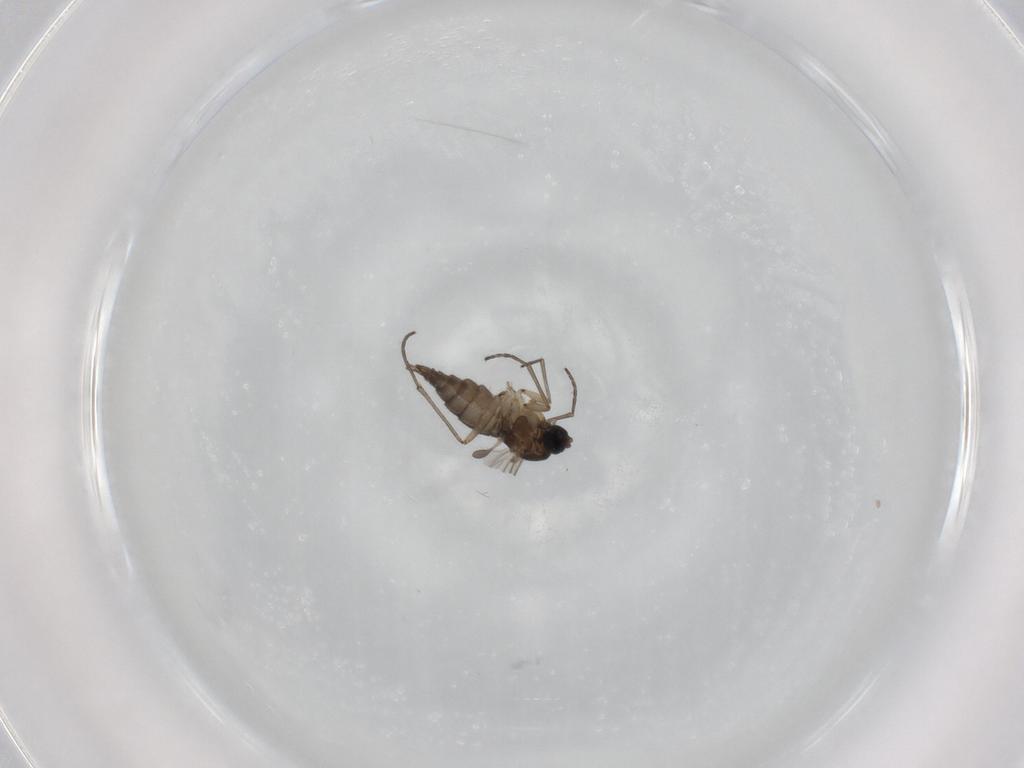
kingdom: Animalia
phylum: Arthropoda
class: Insecta
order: Diptera
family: Sciaridae
